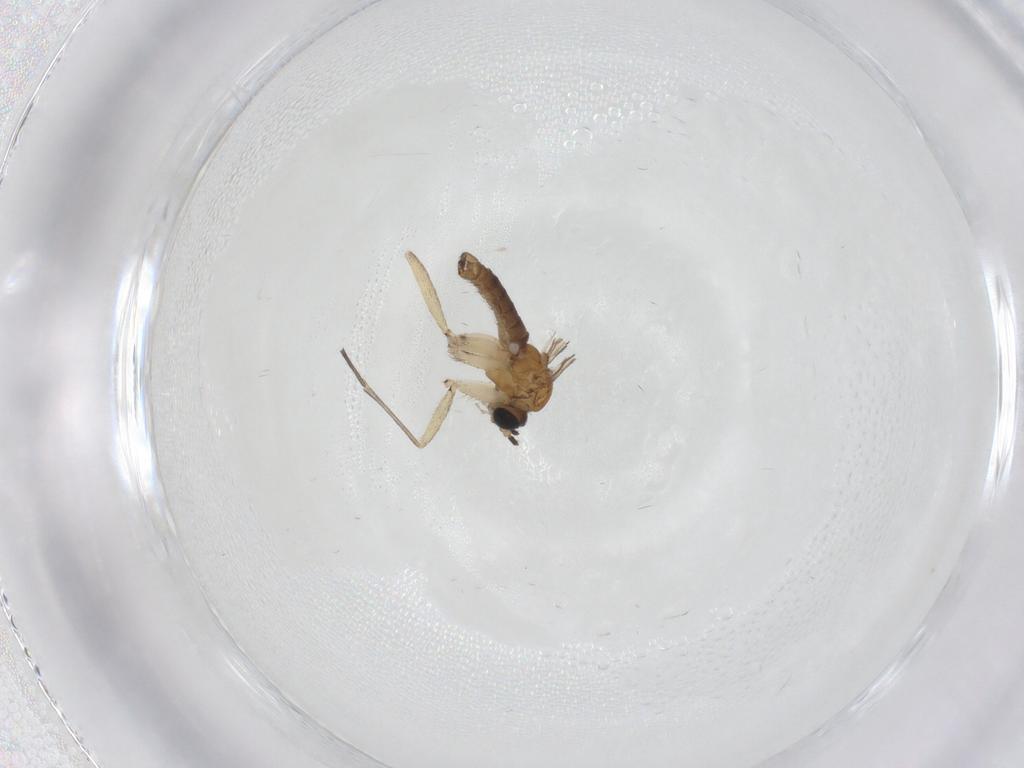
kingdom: Animalia
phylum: Arthropoda
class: Insecta
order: Diptera
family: Sciaridae
